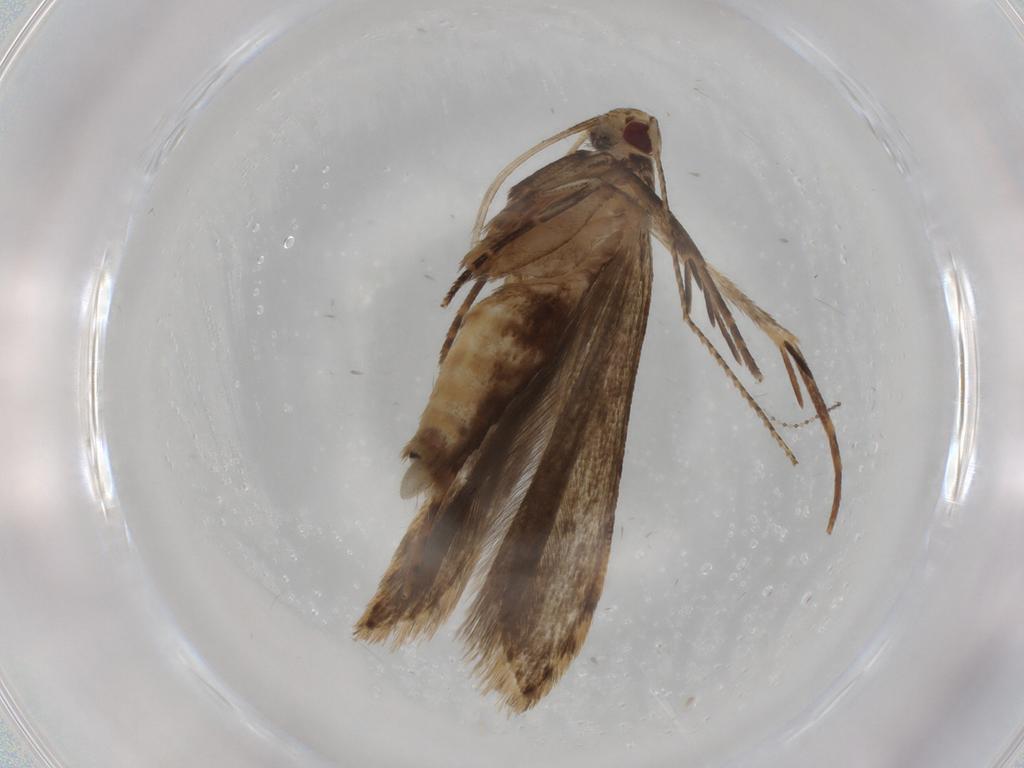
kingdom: Animalia
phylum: Arthropoda
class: Insecta
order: Lepidoptera
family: Gelechiidae
